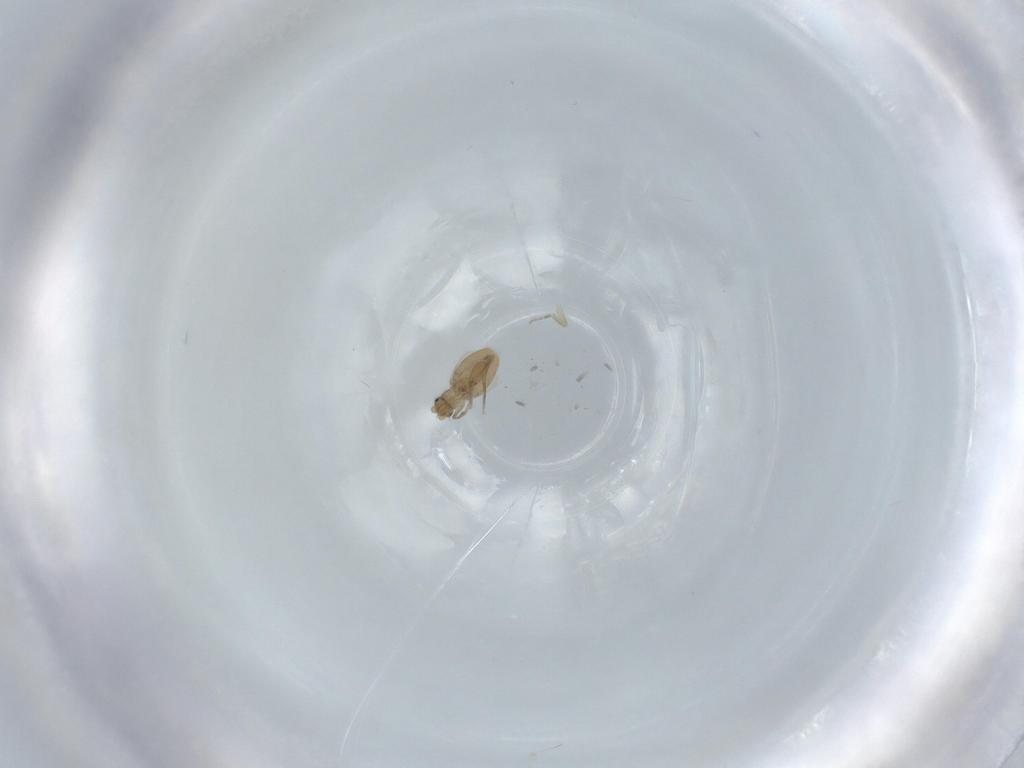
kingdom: Animalia
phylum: Arthropoda
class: Insecta
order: Diptera
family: Phoridae
